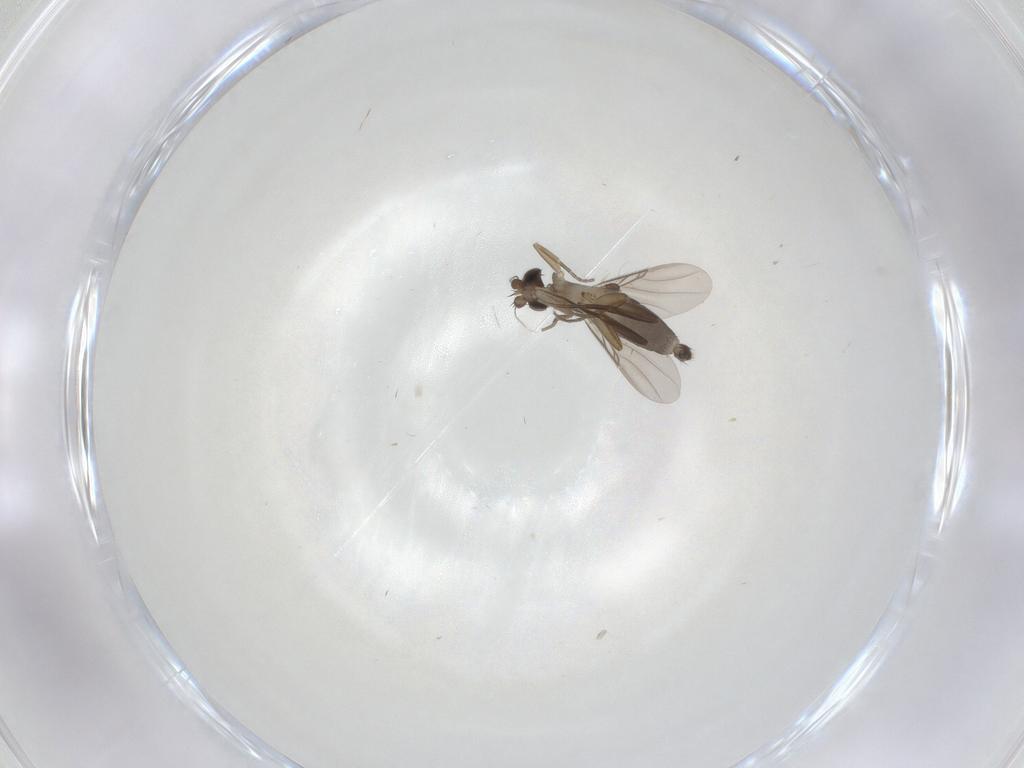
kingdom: Animalia
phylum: Arthropoda
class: Insecta
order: Diptera
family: Phoridae
